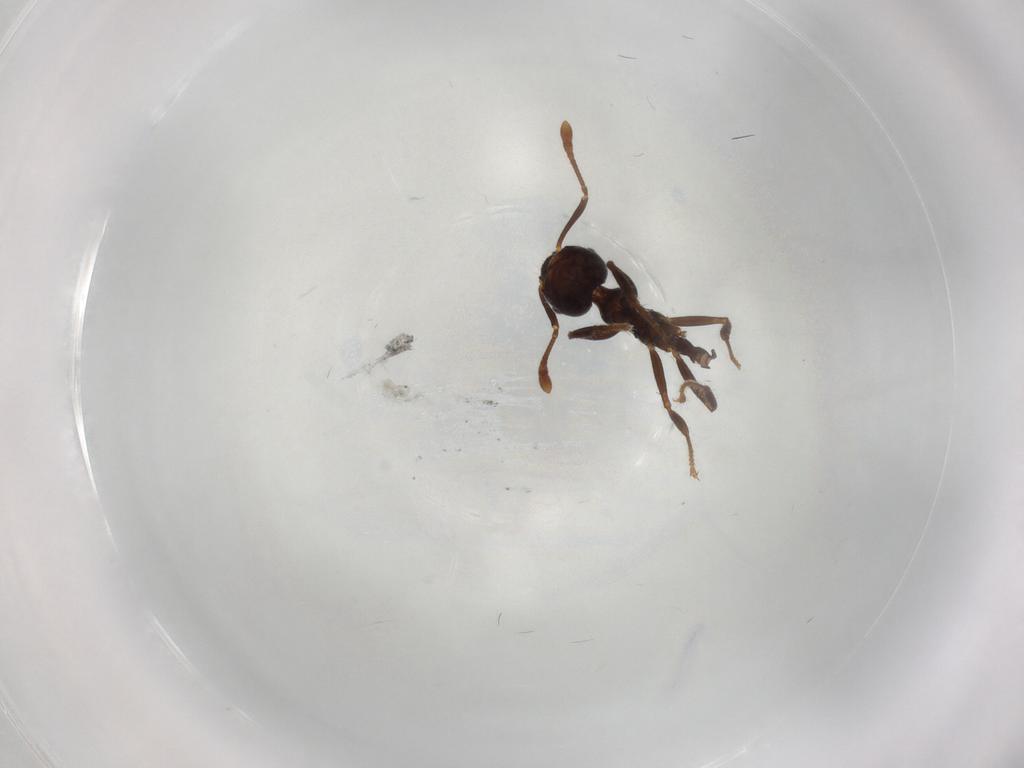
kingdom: Animalia
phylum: Arthropoda
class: Insecta
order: Hymenoptera
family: Formicidae
